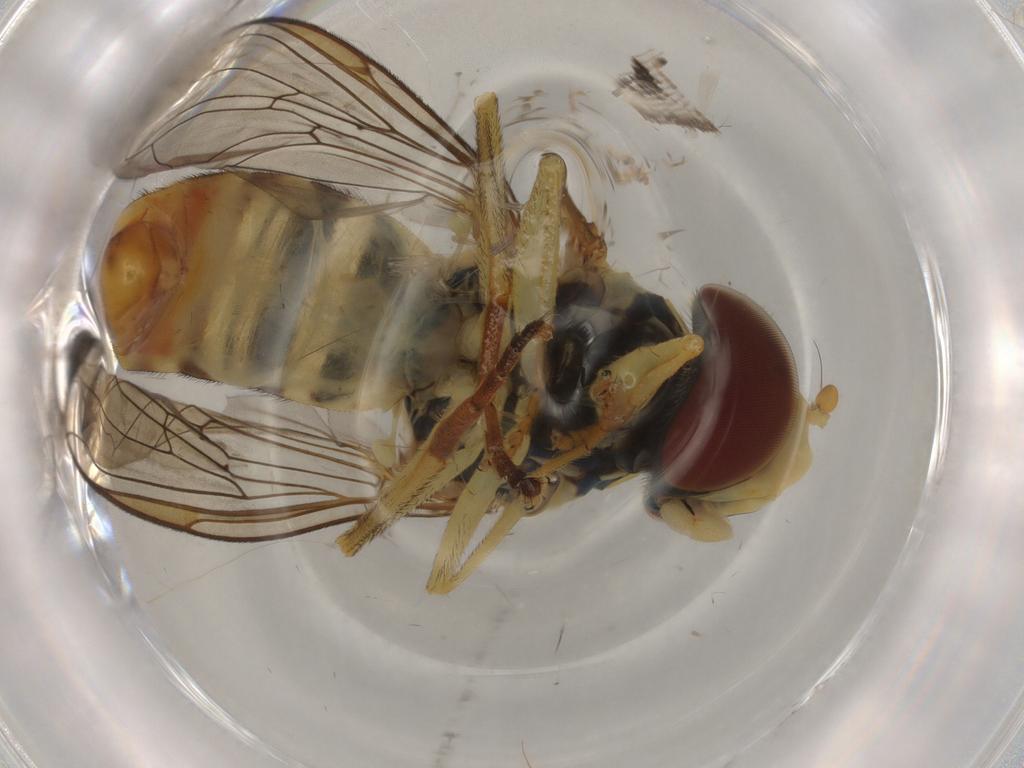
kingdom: Animalia
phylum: Arthropoda
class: Insecta
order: Diptera
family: Syrphidae
